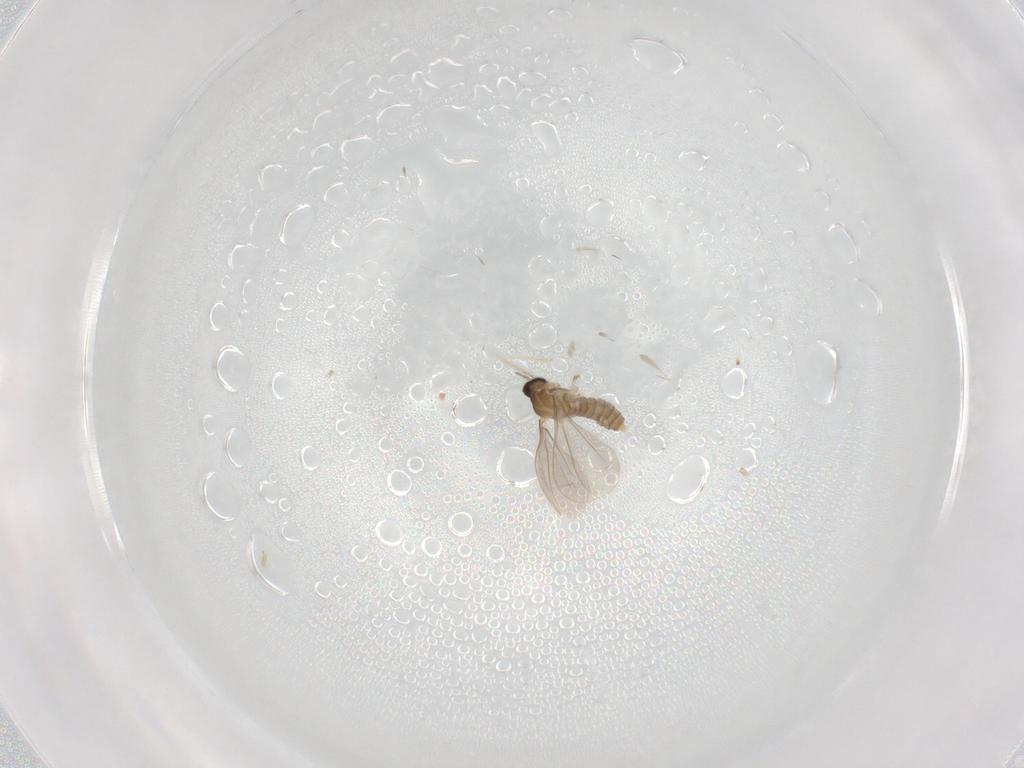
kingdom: Animalia
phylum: Arthropoda
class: Insecta
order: Diptera
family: Cecidomyiidae
